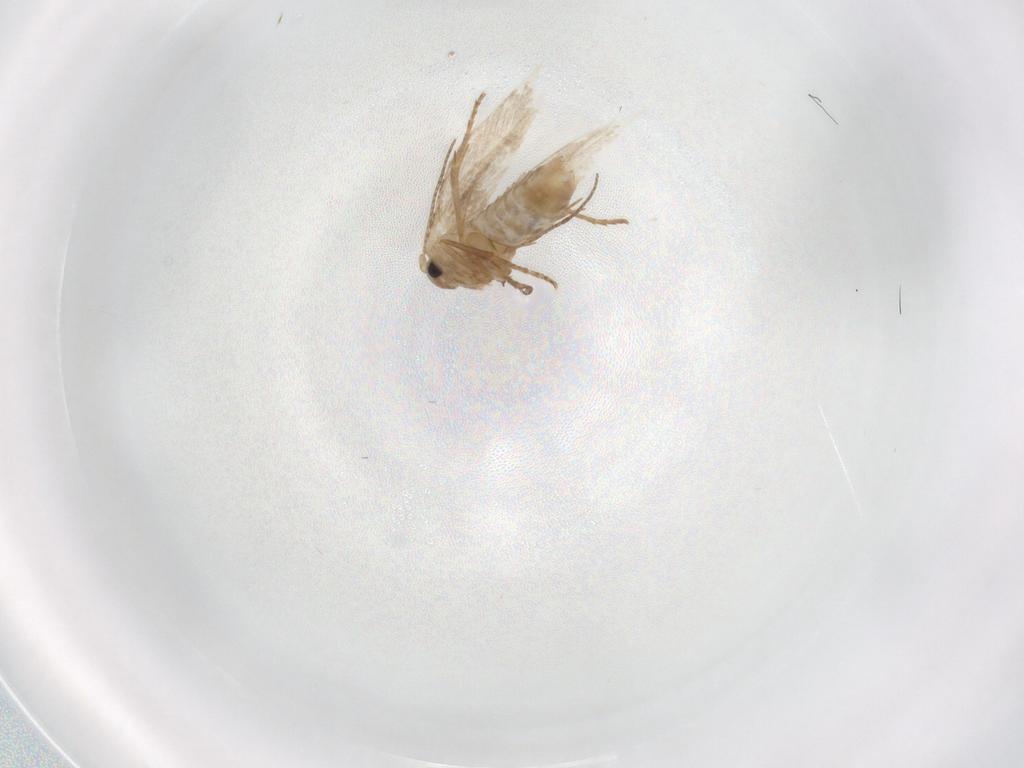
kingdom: Animalia
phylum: Arthropoda
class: Insecta
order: Lepidoptera
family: Bucculatricidae
